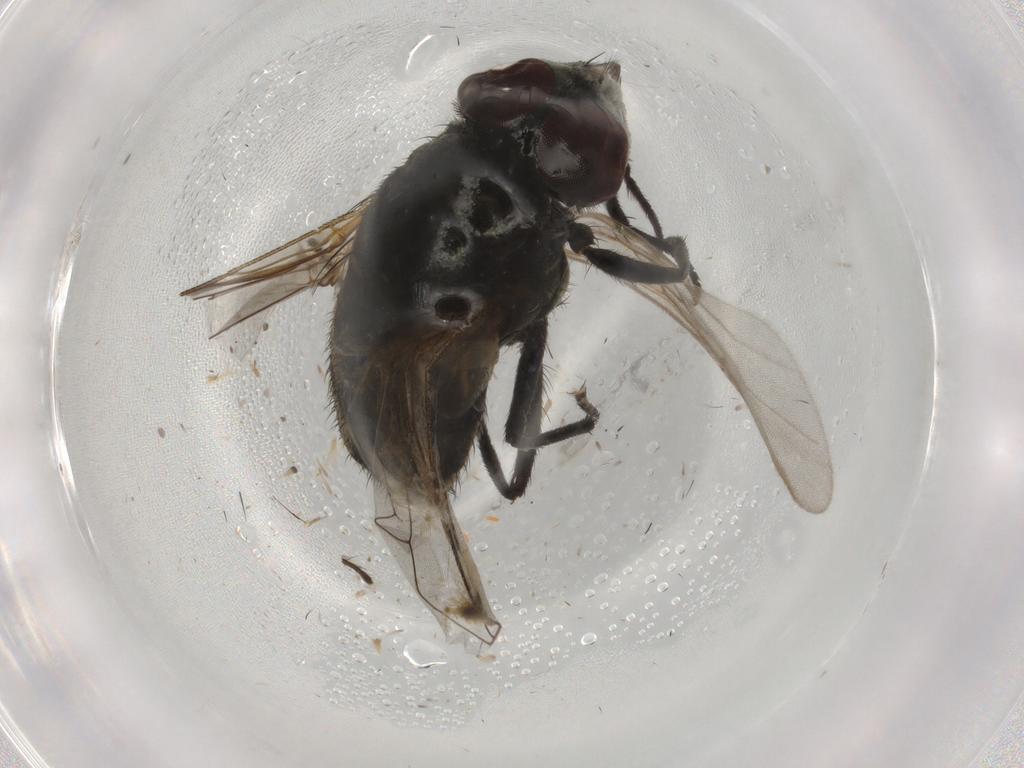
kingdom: Animalia
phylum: Arthropoda
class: Insecta
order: Diptera
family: Muscidae
